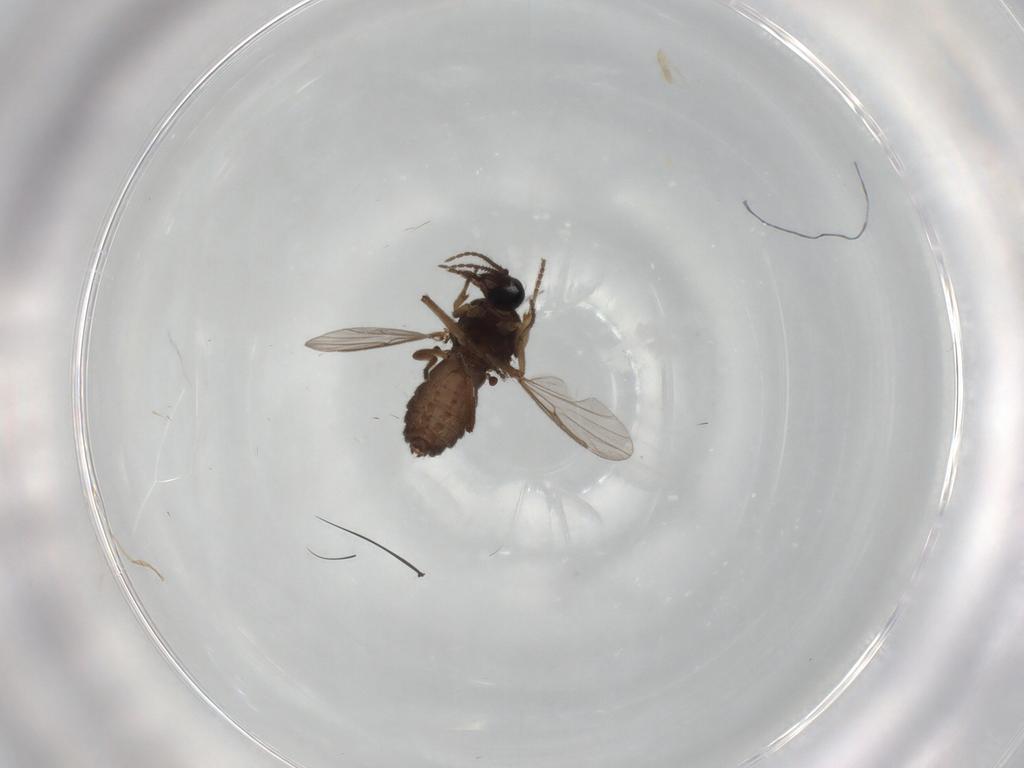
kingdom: Animalia
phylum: Arthropoda
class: Insecta
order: Diptera
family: Ceratopogonidae
